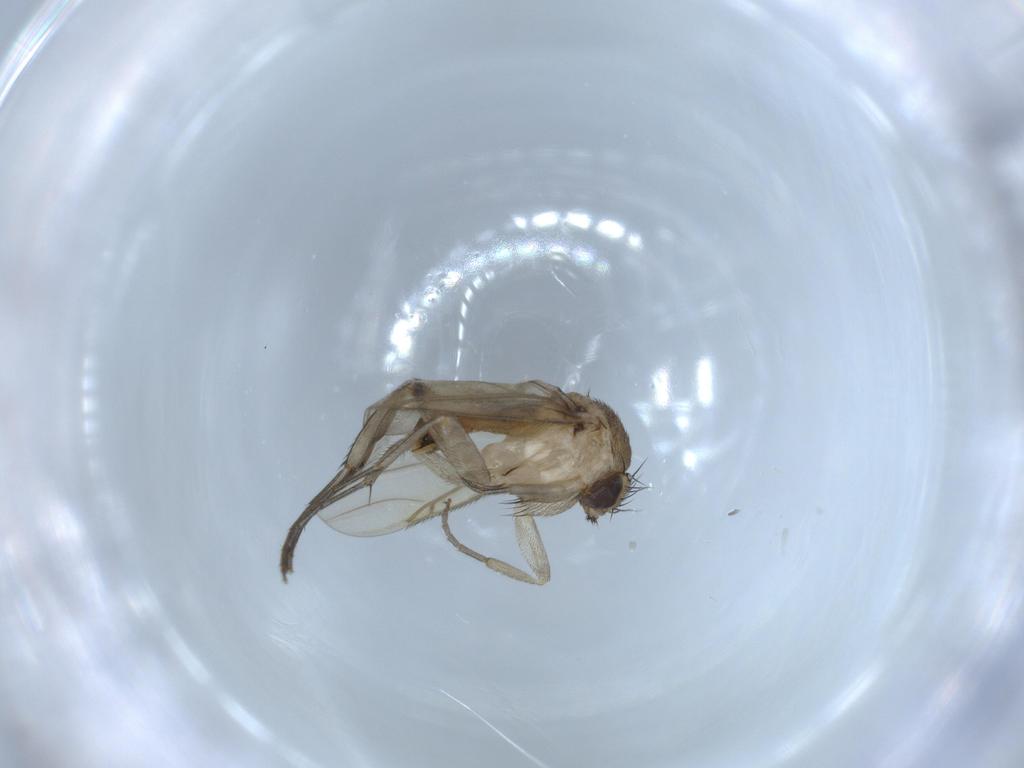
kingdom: Animalia
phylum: Arthropoda
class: Insecta
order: Diptera
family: Phoridae
